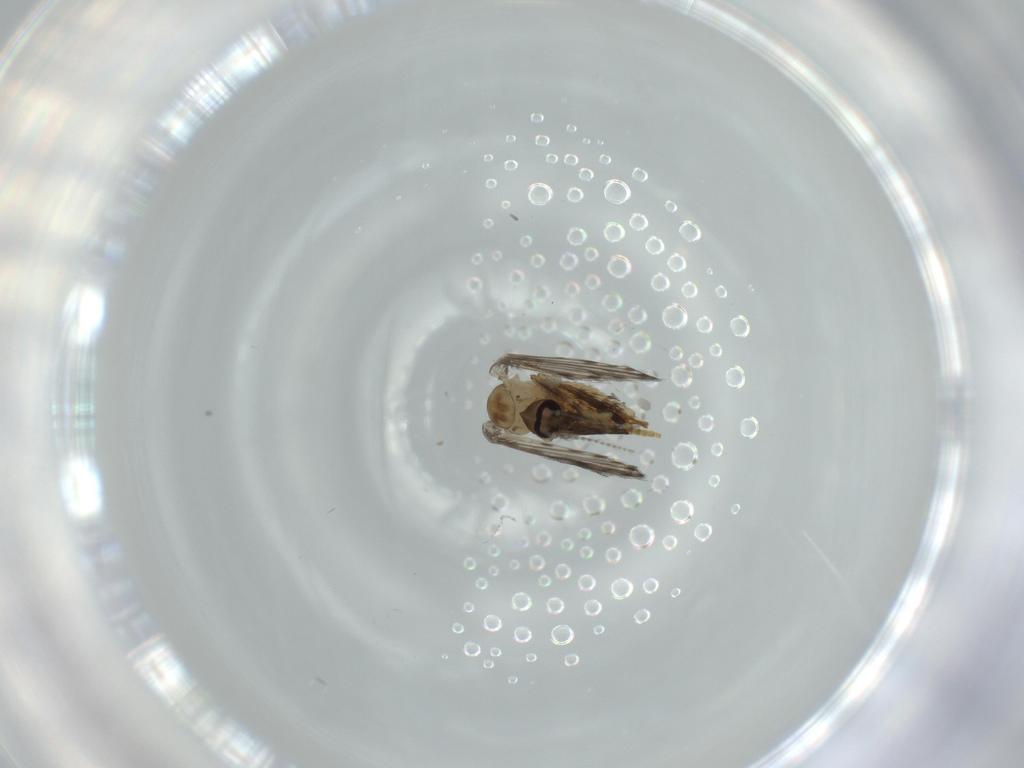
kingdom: Animalia
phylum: Arthropoda
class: Insecta
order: Diptera
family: Psychodidae
